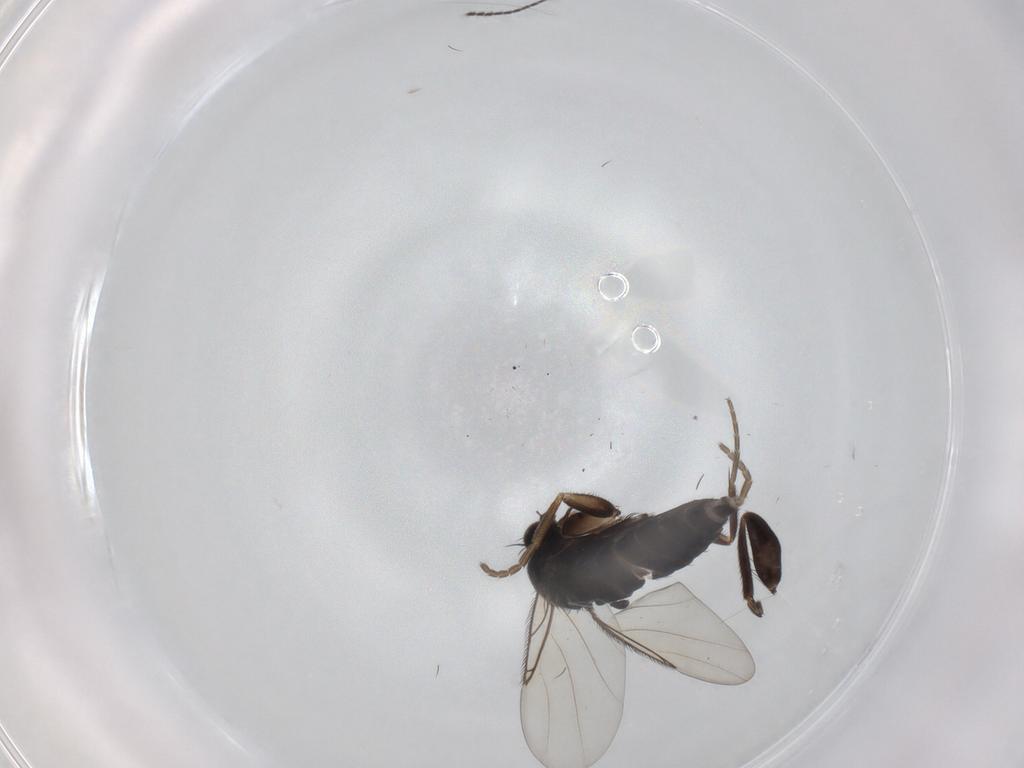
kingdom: Animalia
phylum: Arthropoda
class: Insecta
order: Diptera
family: Phoridae
